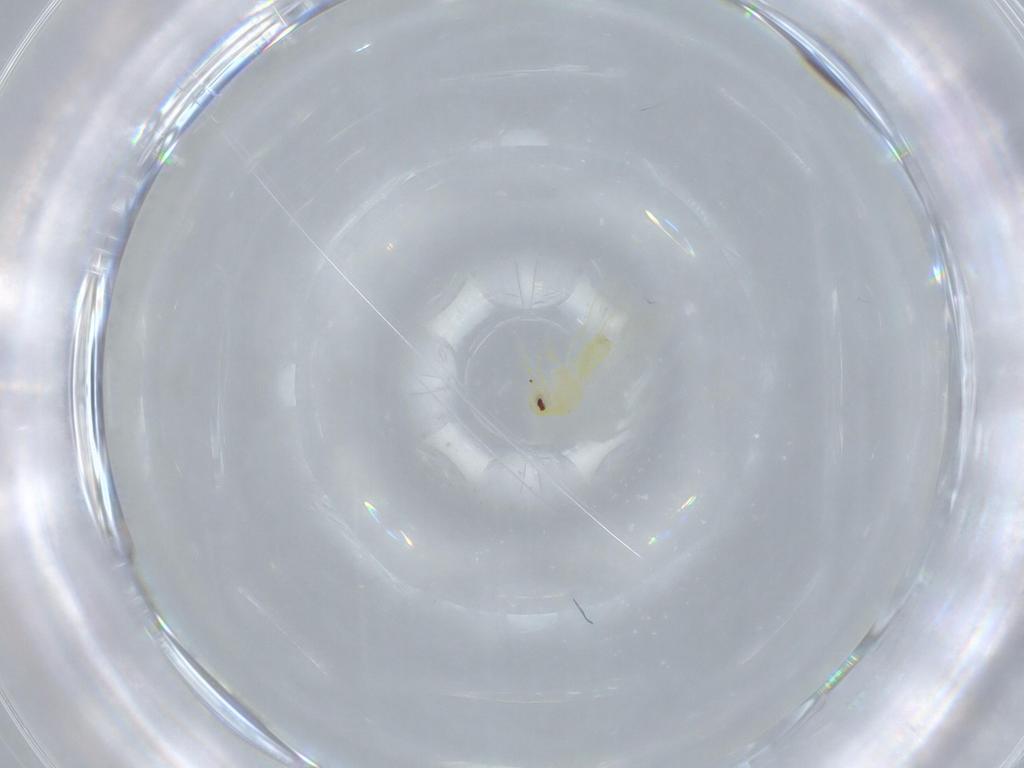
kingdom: Animalia
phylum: Arthropoda
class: Insecta
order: Hemiptera
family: Aleyrodidae
